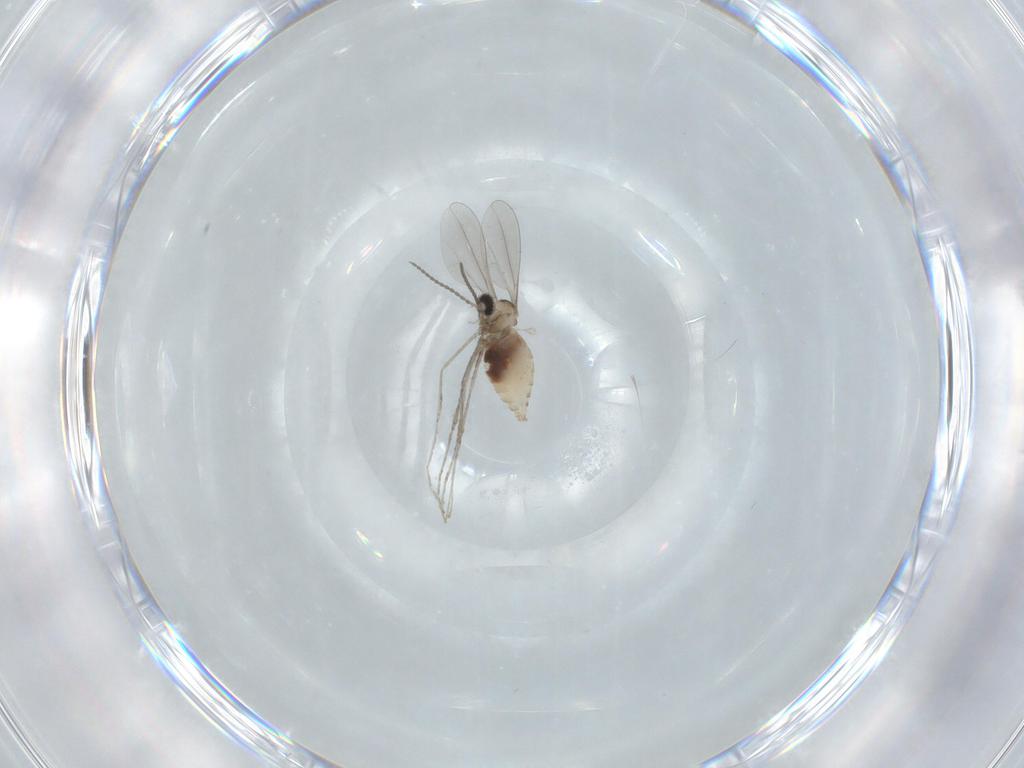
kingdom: Animalia
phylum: Arthropoda
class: Insecta
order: Diptera
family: Cecidomyiidae
